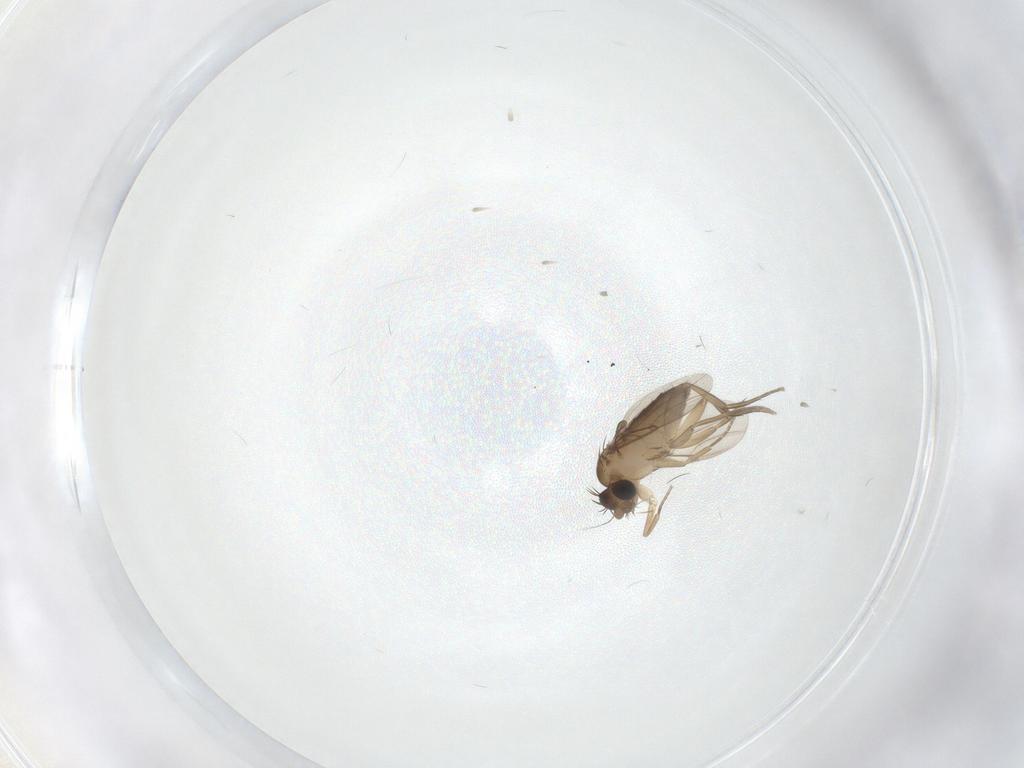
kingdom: Animalia
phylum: Arthropoda
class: Insecta
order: Diptera
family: Phoridae
